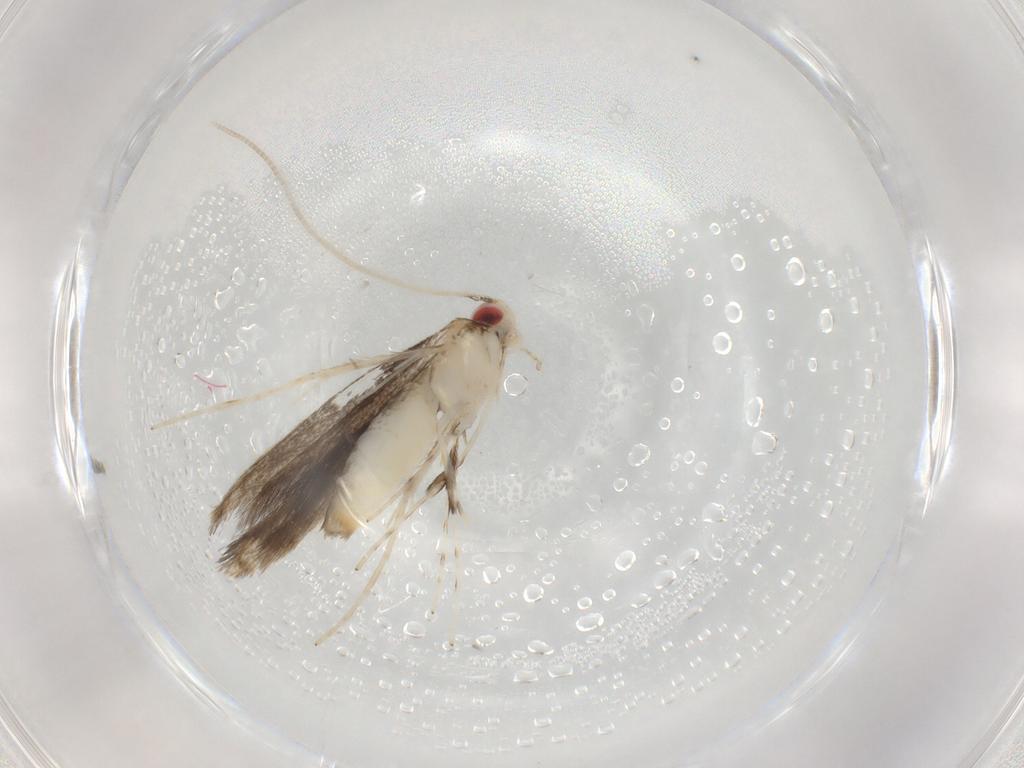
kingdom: Animalia
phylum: Arthropoda
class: Insecta
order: Lepidoptera
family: Elachistidae
